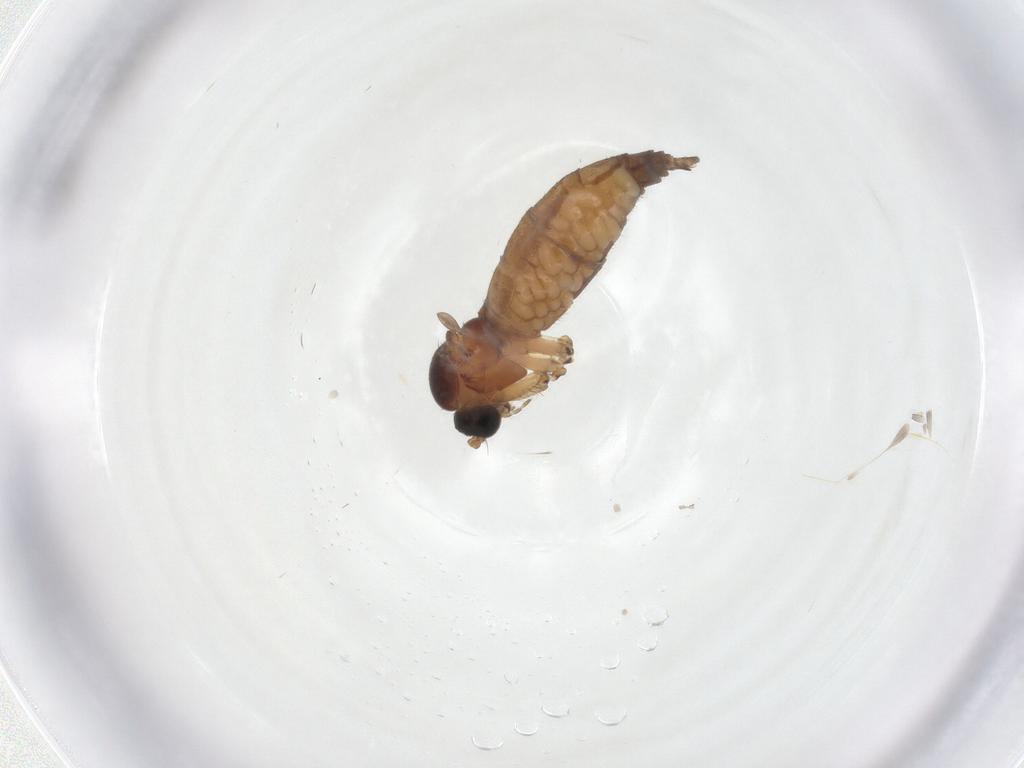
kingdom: Animalia
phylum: Arthropoda
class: Insecta
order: Diptera
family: Sciaridae
